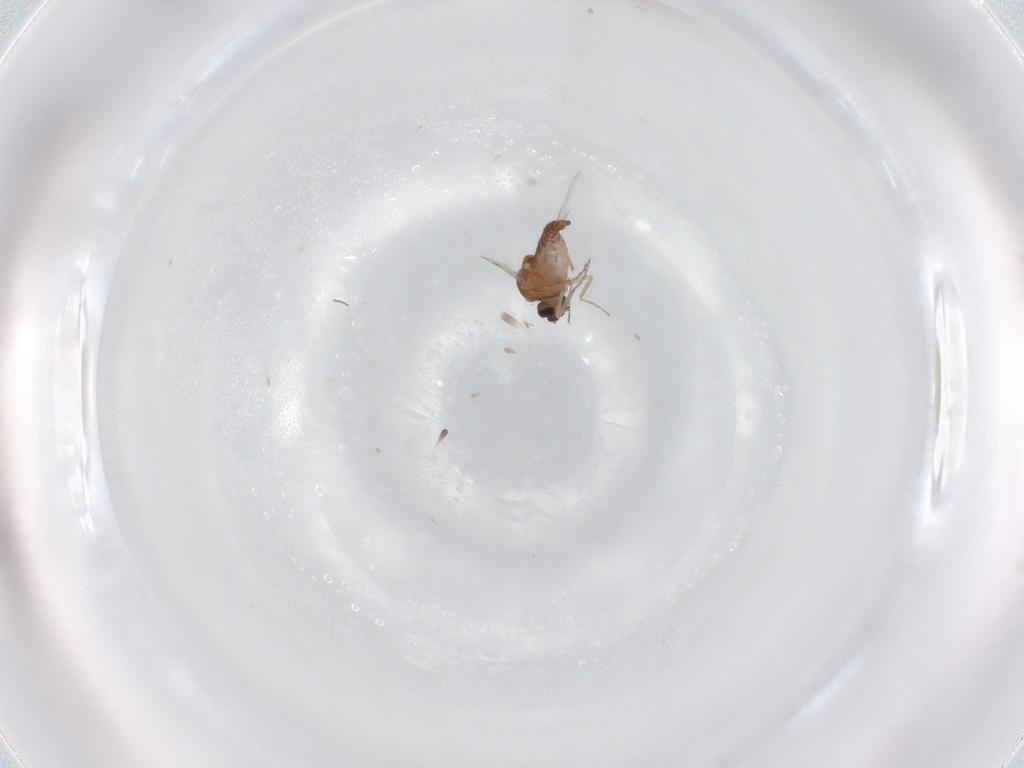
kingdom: Animalia
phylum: Arthropoda
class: Insecta
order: Diptera
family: Ceratopogonidae
